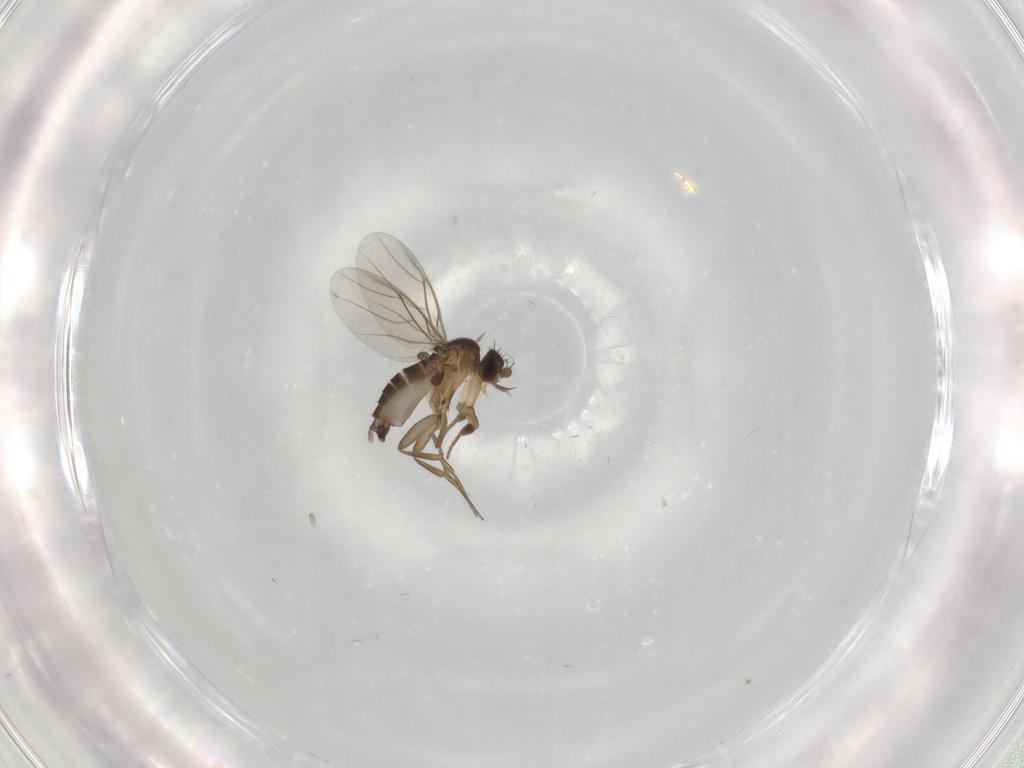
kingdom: Animalia
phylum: Arthropoda
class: Insecta
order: Diptera
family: Phoridae
